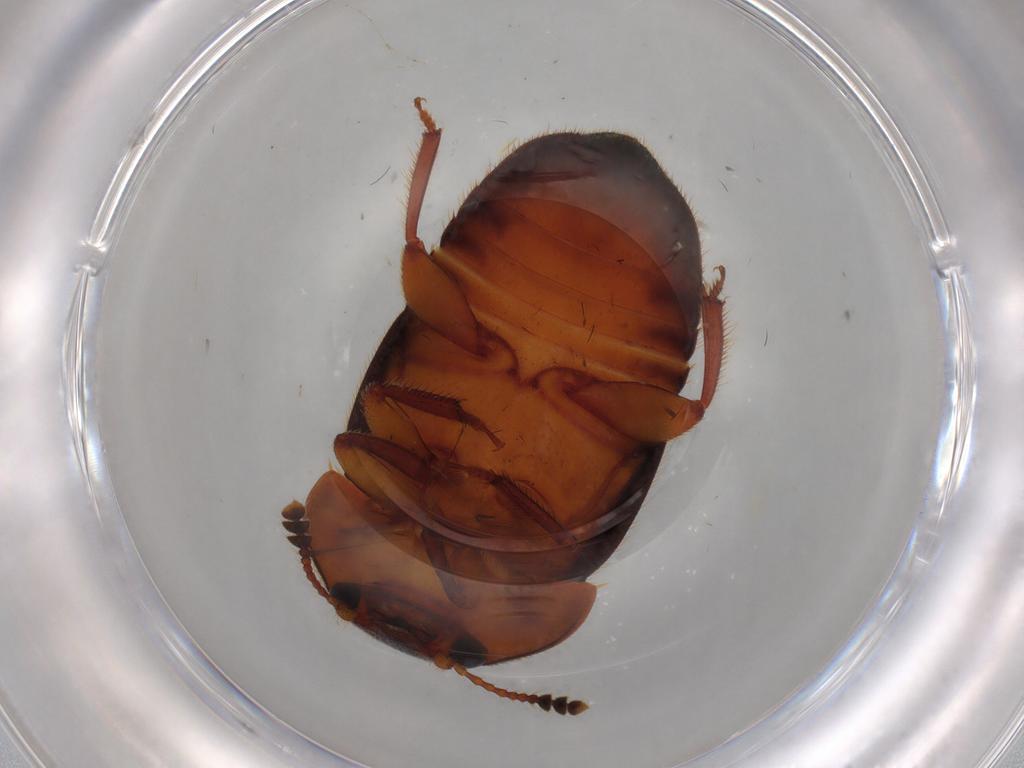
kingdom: Animalia
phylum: Arthropoda
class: Insecta
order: Coleoptera
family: Nitidulidae
